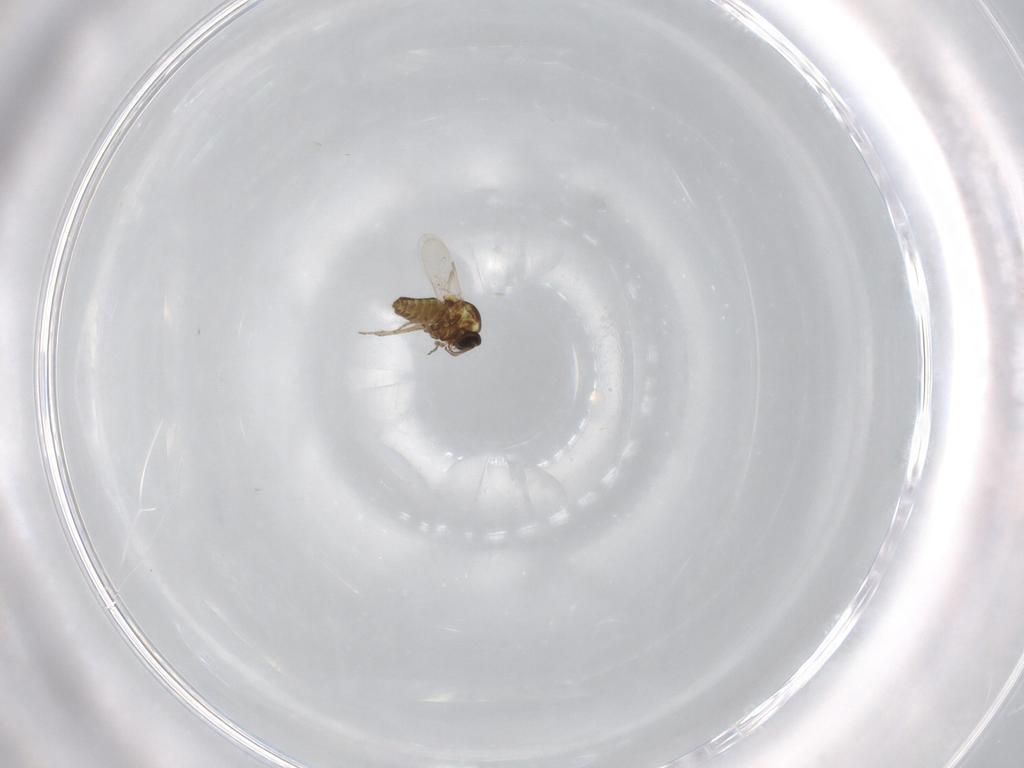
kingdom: Animalia
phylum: Arthropoda
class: Insecta
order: Diptera
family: Ceratopogonidae
